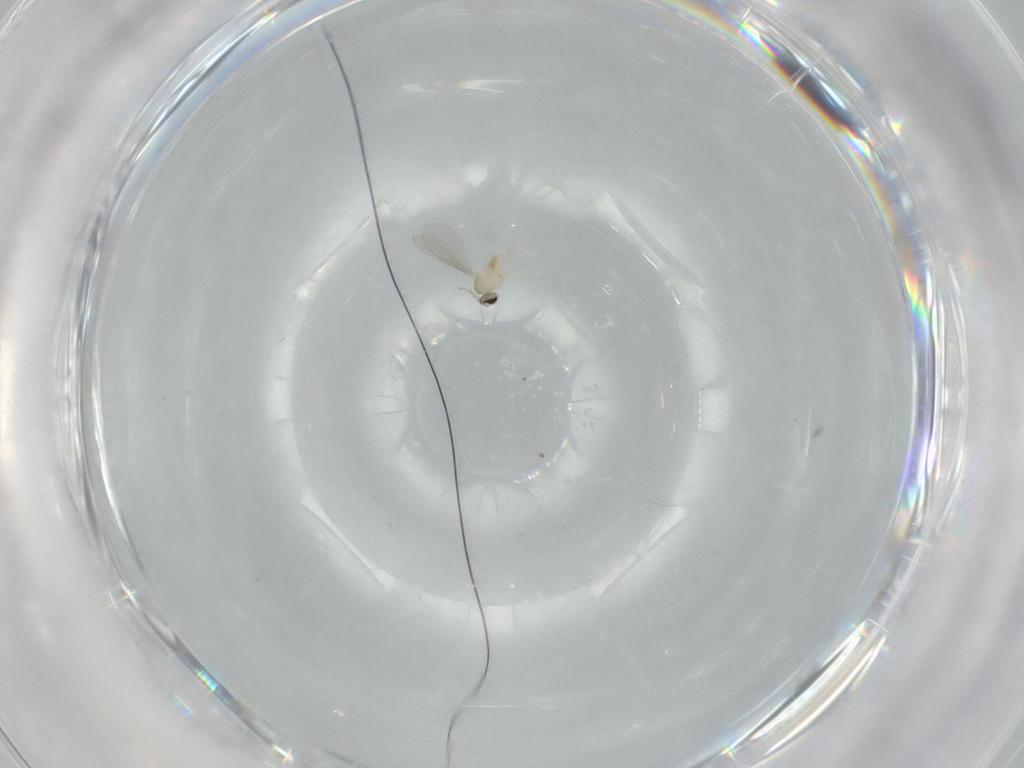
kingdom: Animalia
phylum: Arthropoda
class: Insecta
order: Diptera
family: Cecidomyiidae
